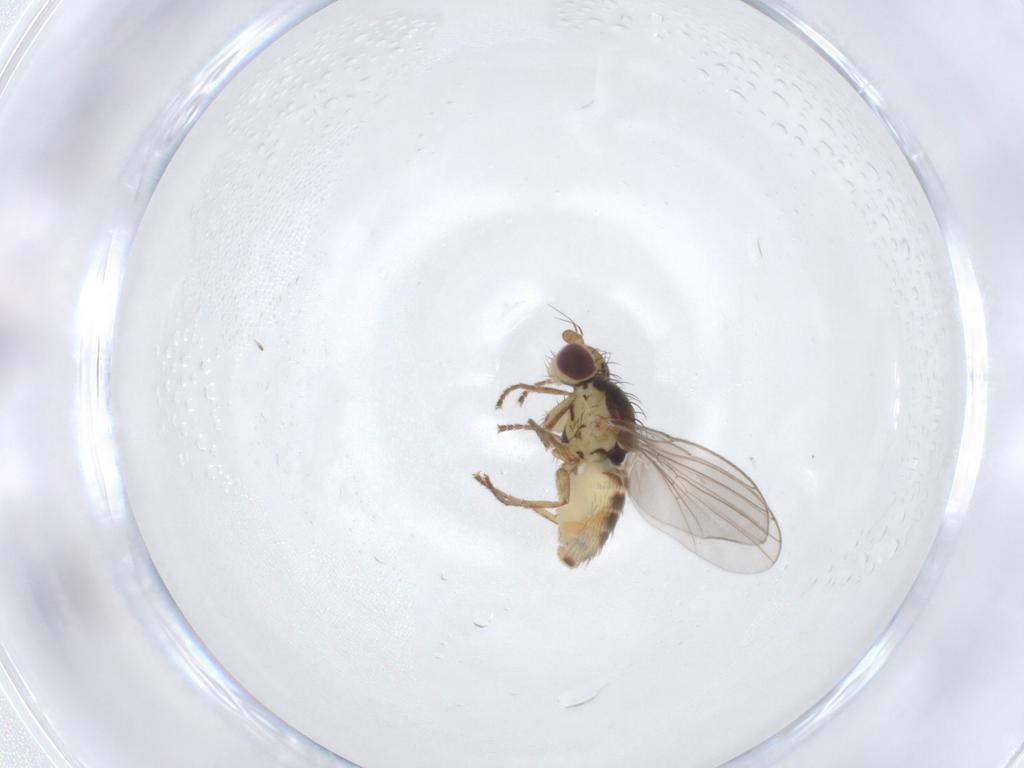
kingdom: Animalia
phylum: Arthropoda
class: Insecta
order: Diptera
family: Agromyzidae
